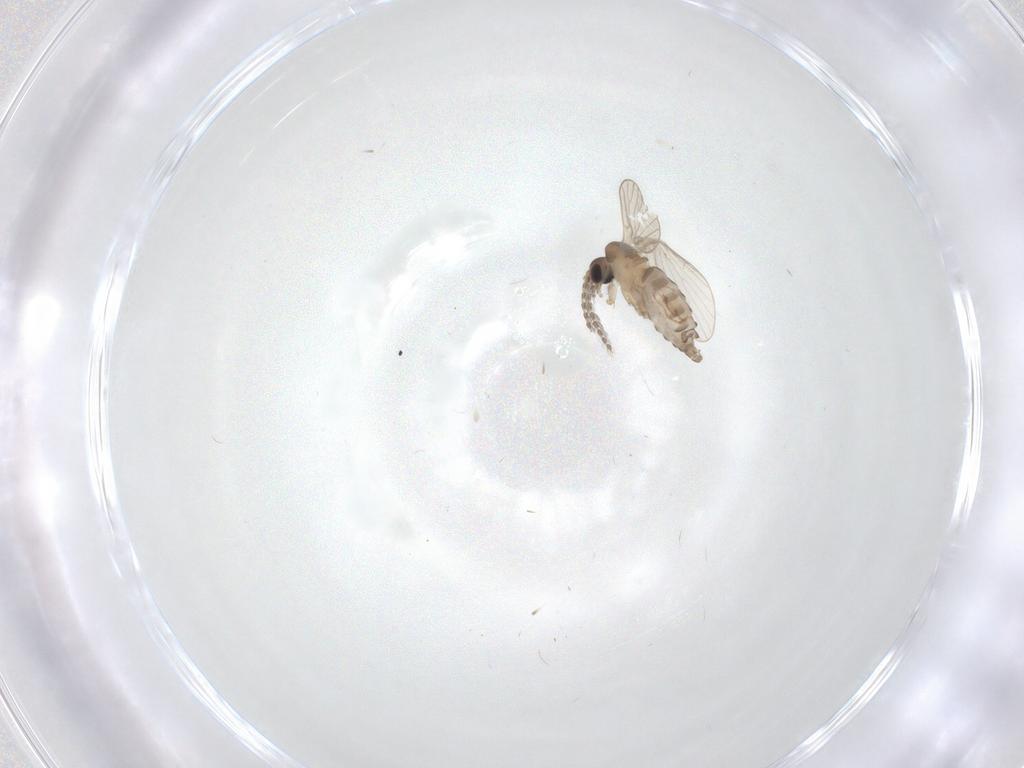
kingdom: Animalia
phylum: Arthropoda
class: Insecta
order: Diptera
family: Psychodidae
